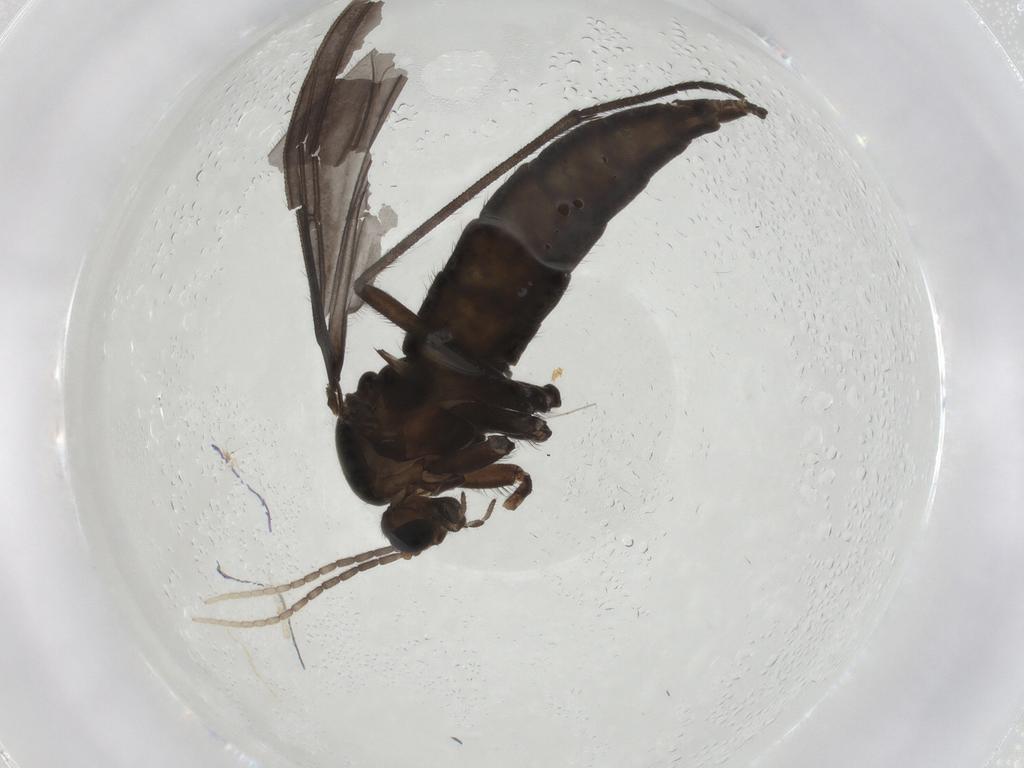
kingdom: Animalia
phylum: Arthropoda
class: Insecta
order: Diptera
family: Sciaridae
